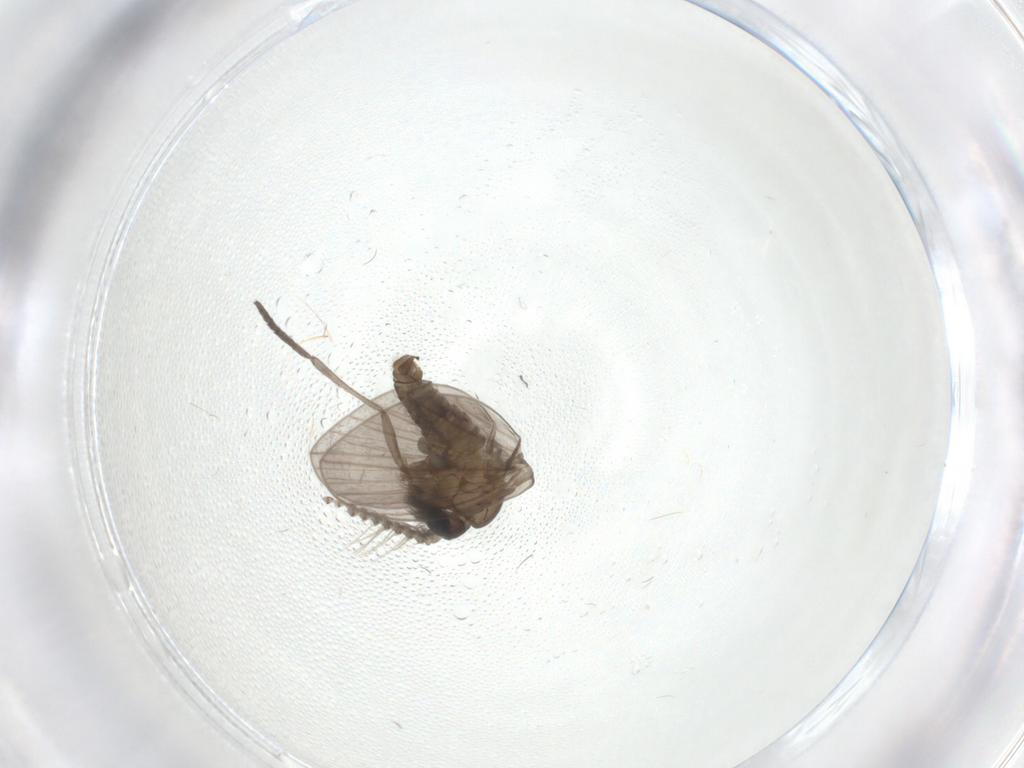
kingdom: Animalia
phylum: Arthropoda
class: Insecta
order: Diptera
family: Psychodidae
